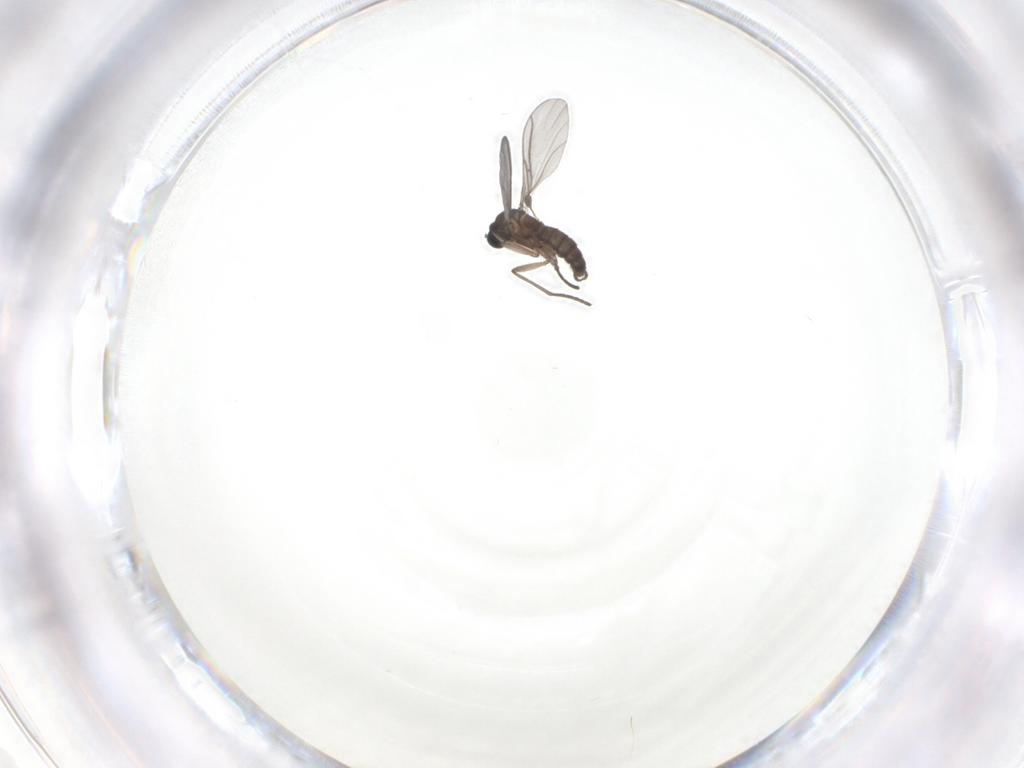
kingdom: Animalia
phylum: Arthropoda
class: Insecta
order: Diptera
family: Sciaridae
